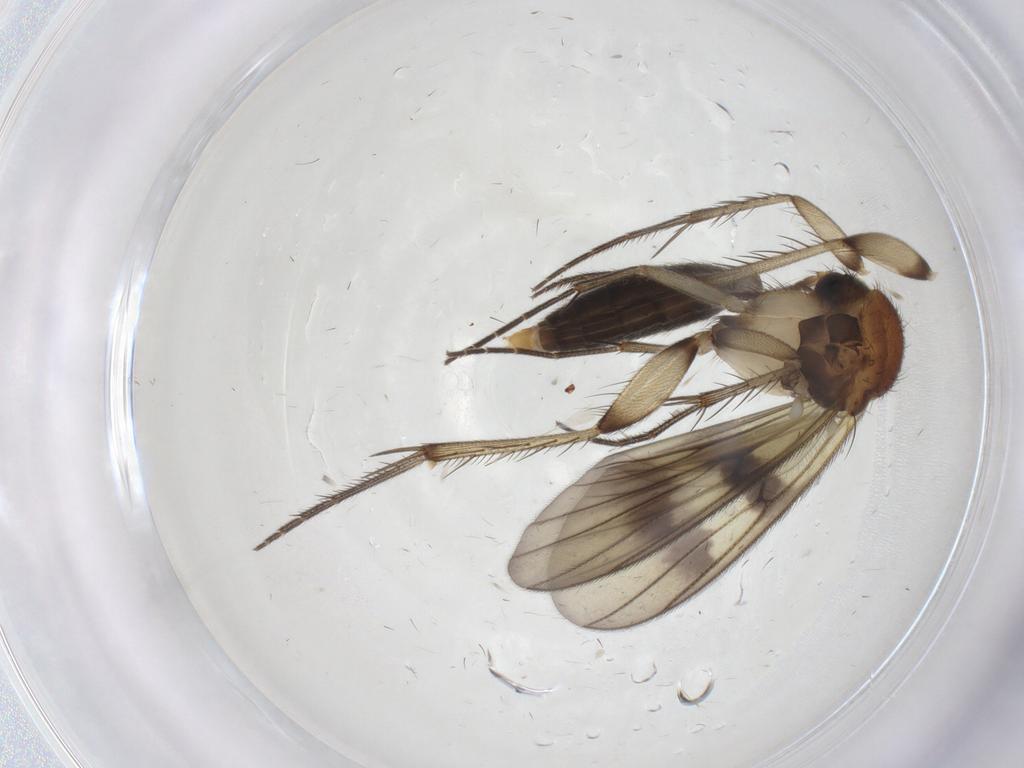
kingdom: Animalia
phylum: Arthropoda
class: Insecta
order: Diptera
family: Mycetophilidae
